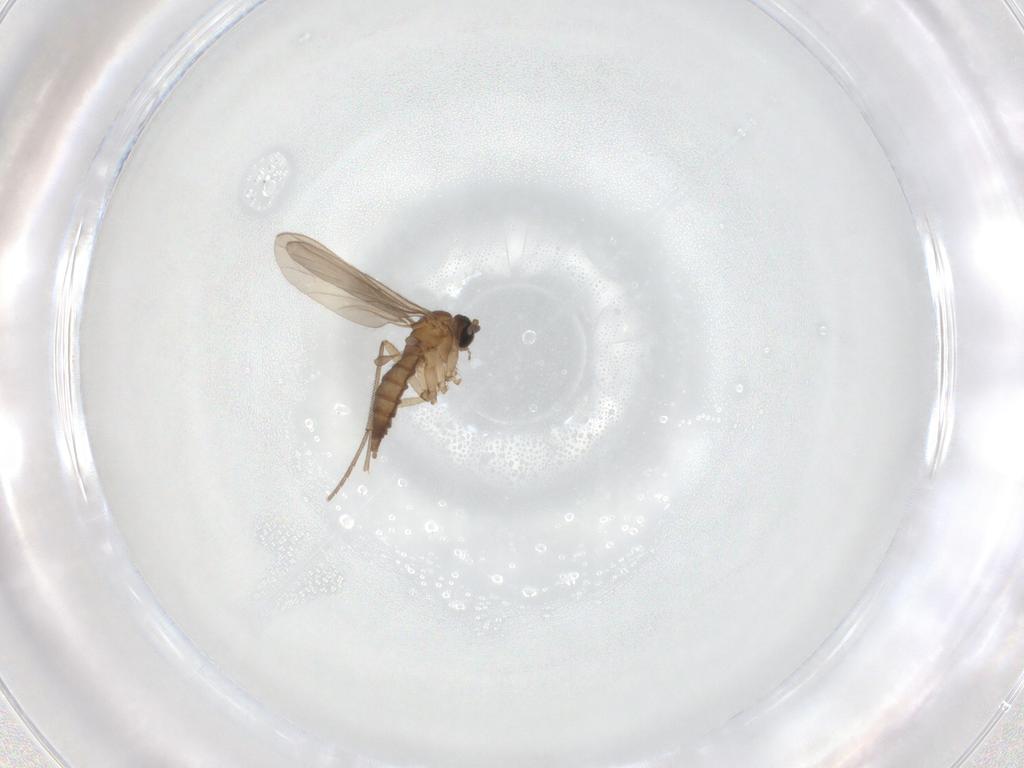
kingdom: Animalia
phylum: Arthropoda
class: Insecta
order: Diptera
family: Sciaridae
